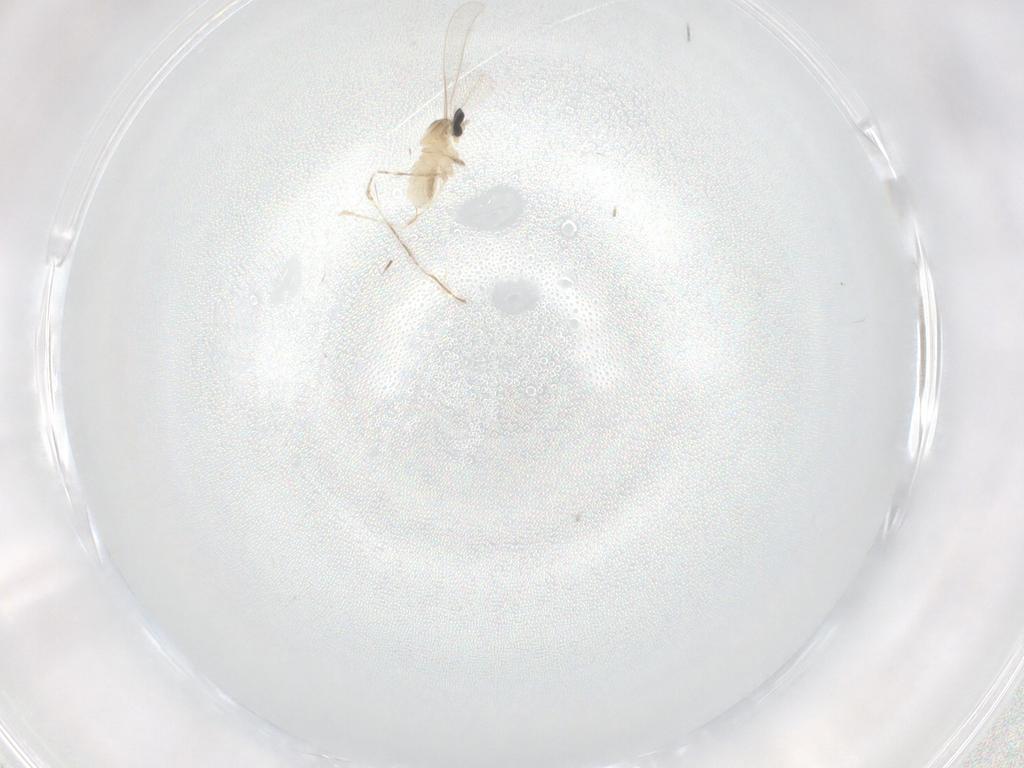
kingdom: Animalia
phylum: Arthropoda
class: Insecta
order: Diptera
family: Cecidomyiidae
